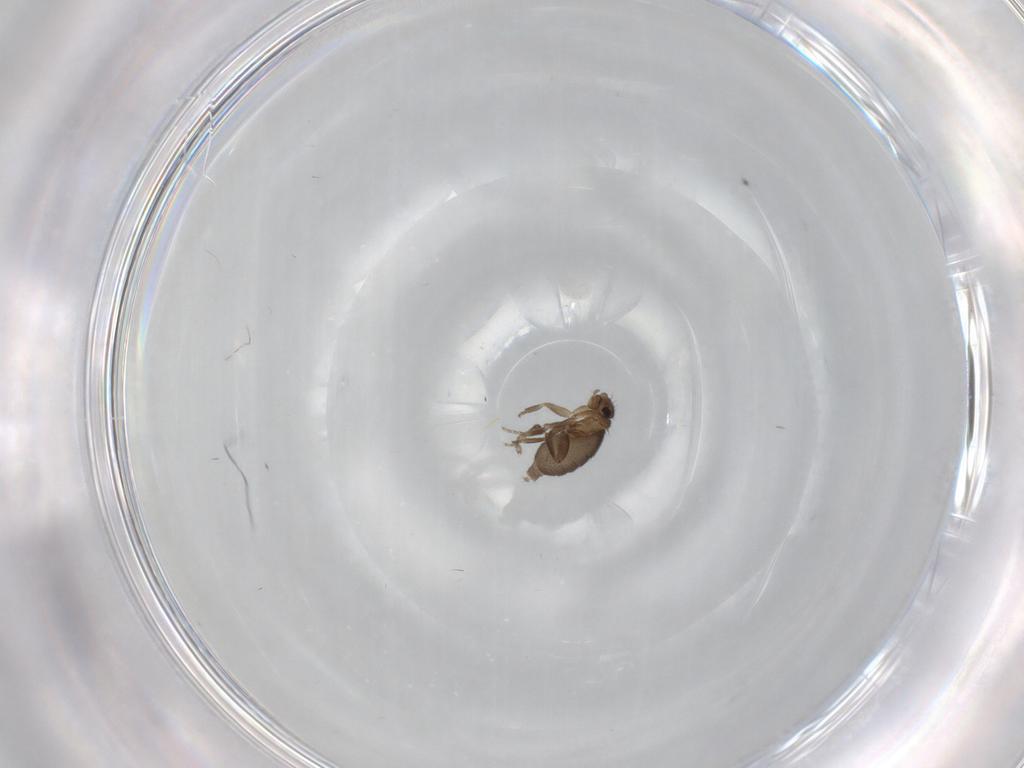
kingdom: Animalia
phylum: Arthropoda
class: Insecta
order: Diptera
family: Phoridae
